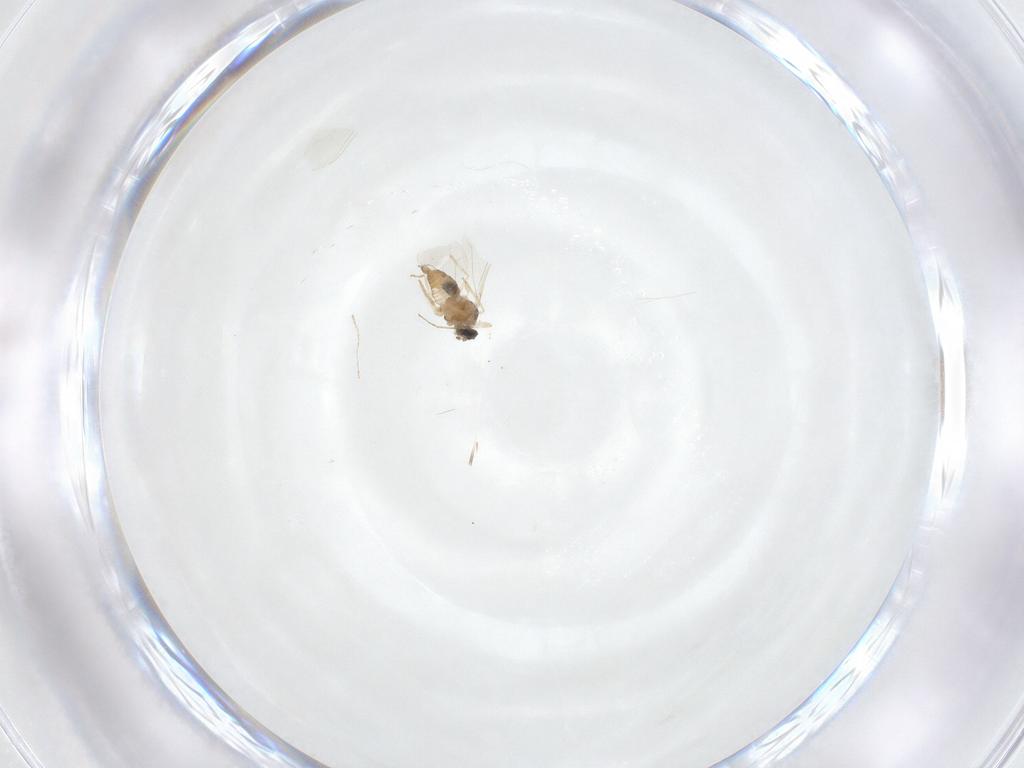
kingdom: Animalia
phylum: Arthropoda
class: Insecta
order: Diptera
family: Cecidomyiidae
